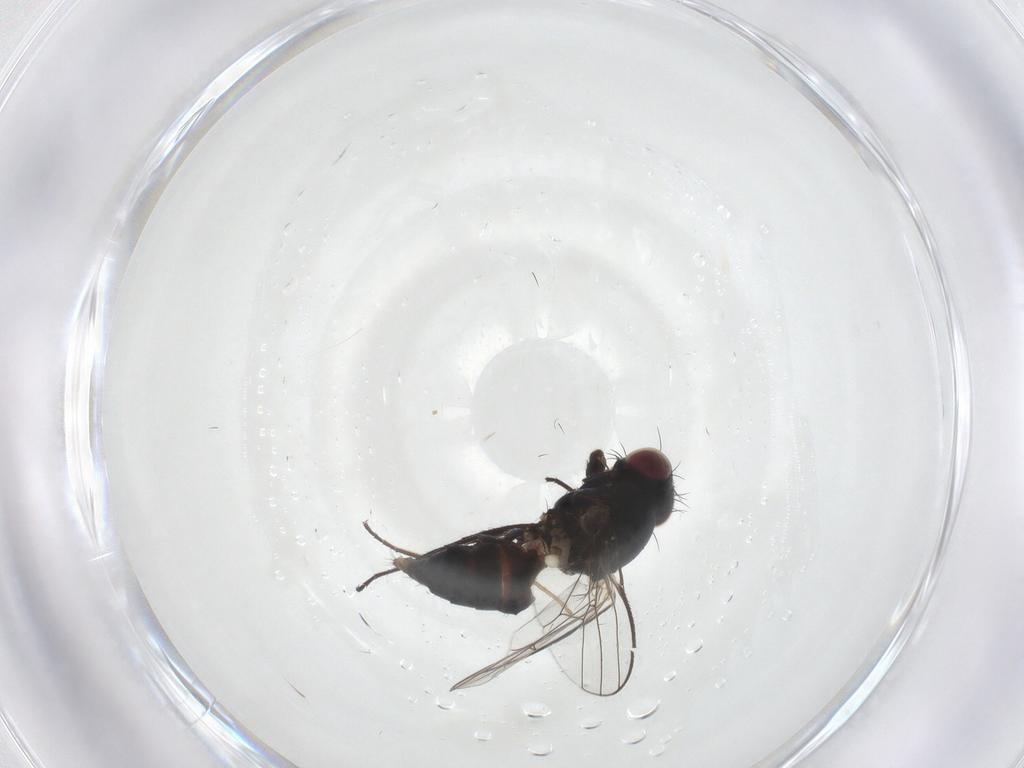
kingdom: Animalia
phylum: Arthropoda
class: Insecta
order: Diptera
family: Carnidae
